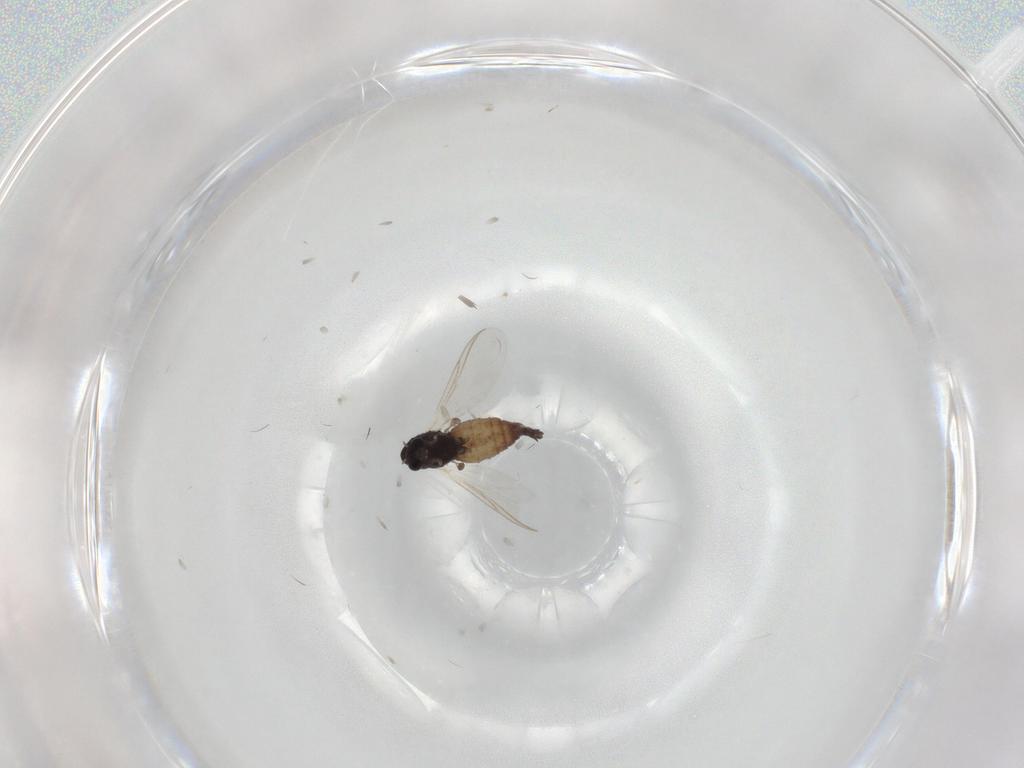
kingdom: Animalia
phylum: Arthropoda
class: Insecta
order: Diptera
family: Chironomidae
